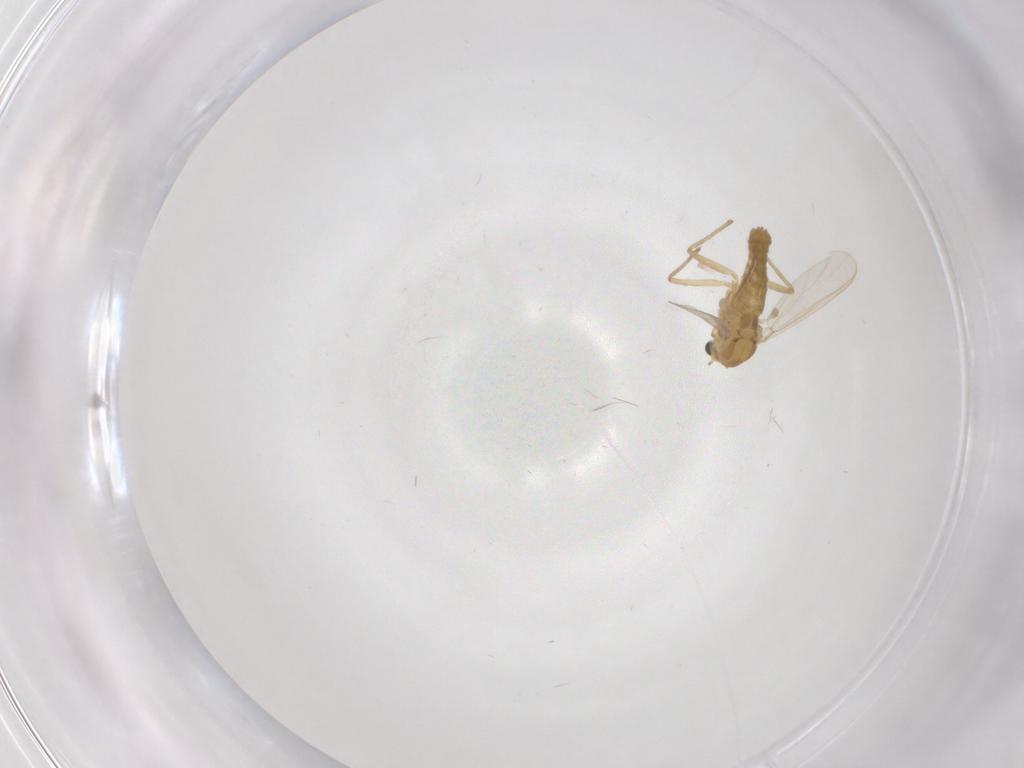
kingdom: Animalia
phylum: Arthropoda
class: Insecta
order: Diptera
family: Chironomidae
